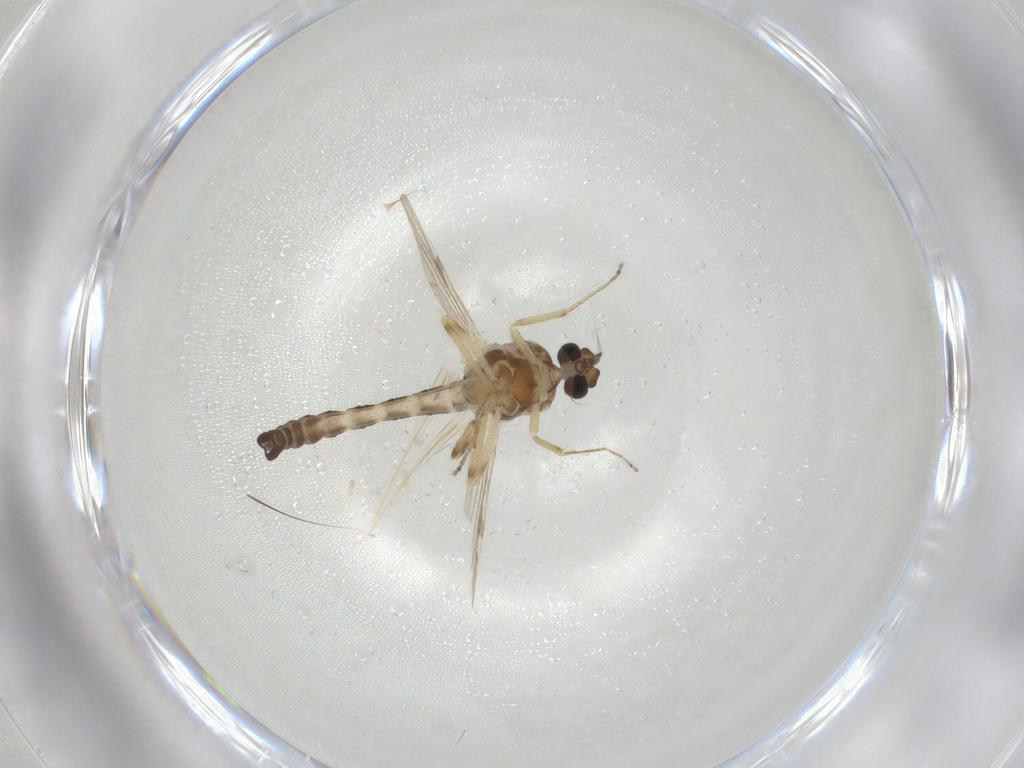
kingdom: Animalia
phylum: Arthropoda
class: Insecta
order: Diptera
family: Ceratopogonidae
